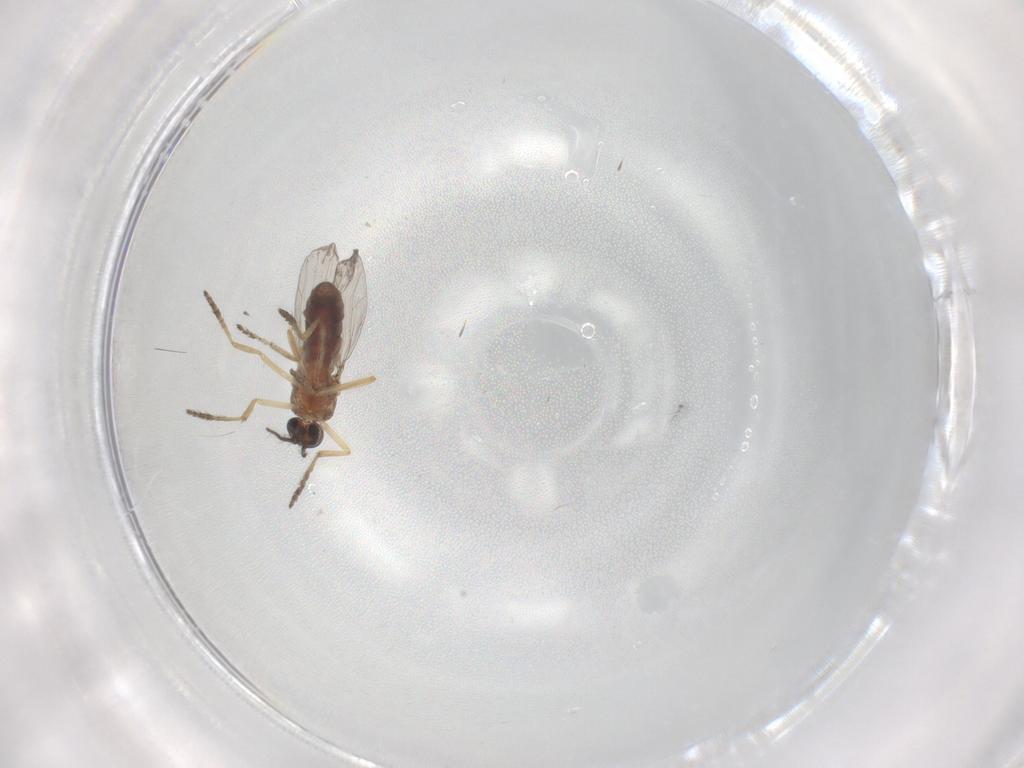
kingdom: Animalia
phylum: Arthropoda
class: Insecta
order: Diptera
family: Ceratopogonidae
